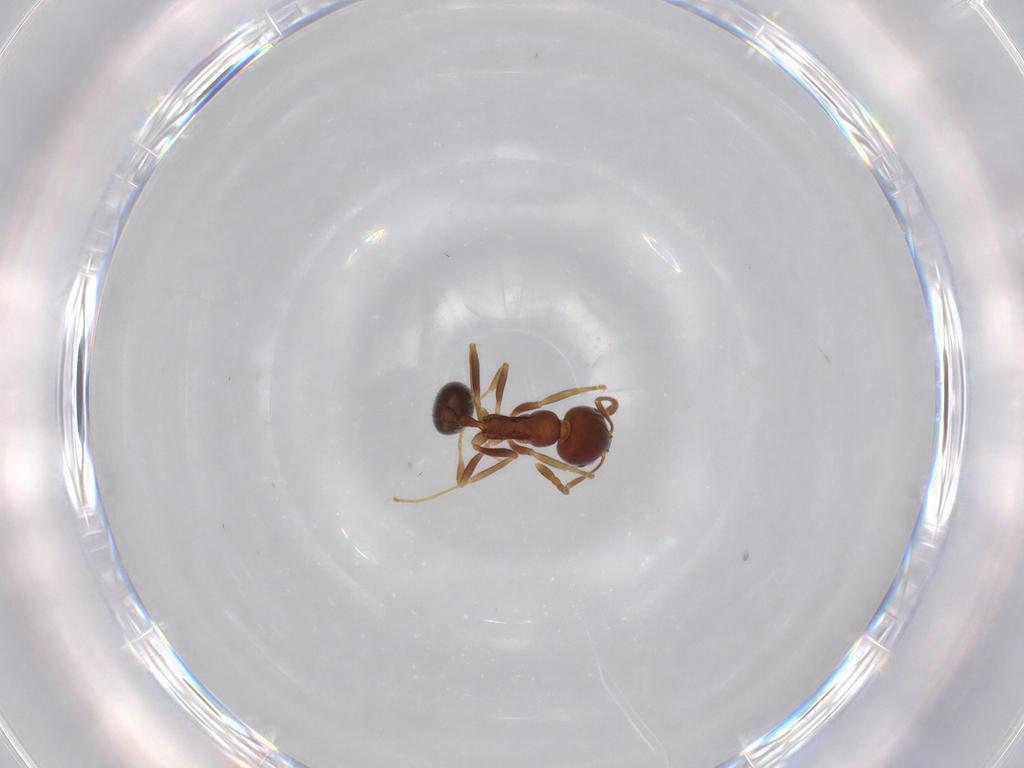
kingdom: Animalia
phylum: Arthropoda
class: Insecta
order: Hymenoptera
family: Formicidae
